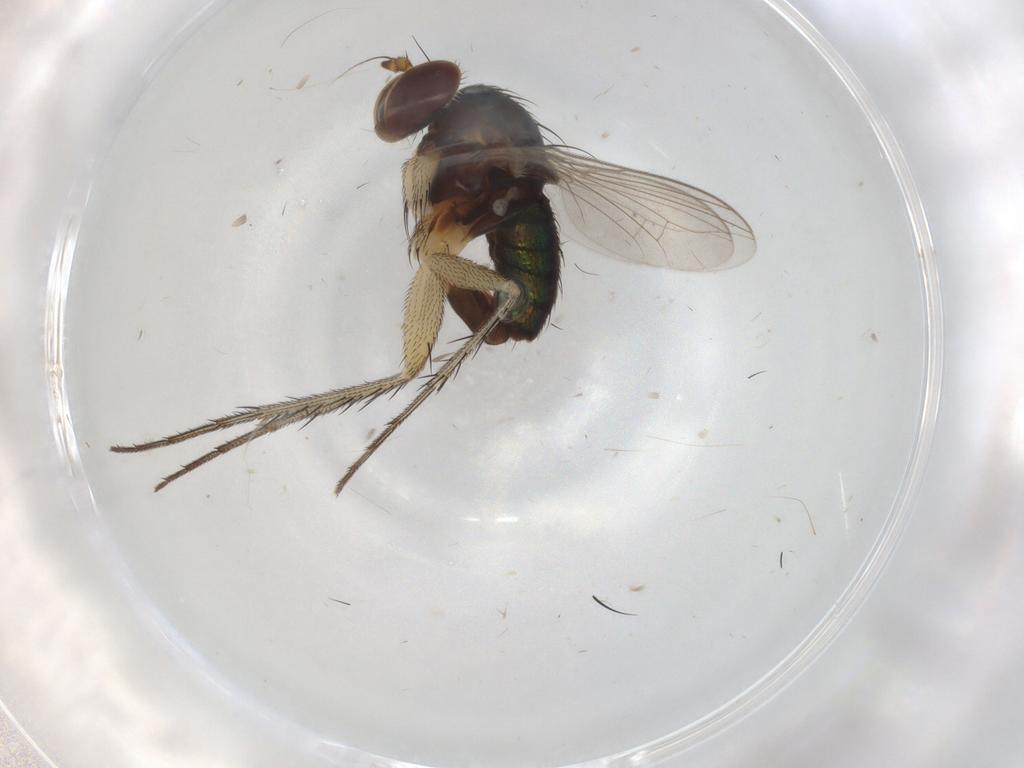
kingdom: Animalia
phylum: Arthropoda
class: Insecta
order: Diptera
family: Dolichopodidae
